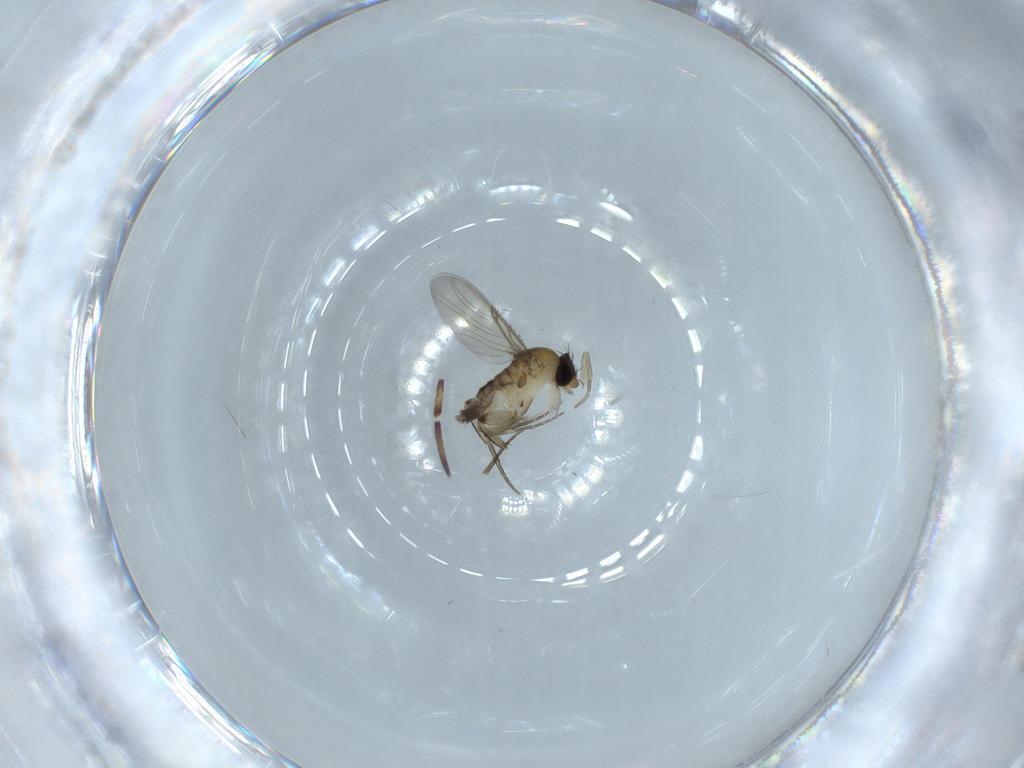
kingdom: Animalia
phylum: Arthropoda
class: Insecta
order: Diptera
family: Phoridae
